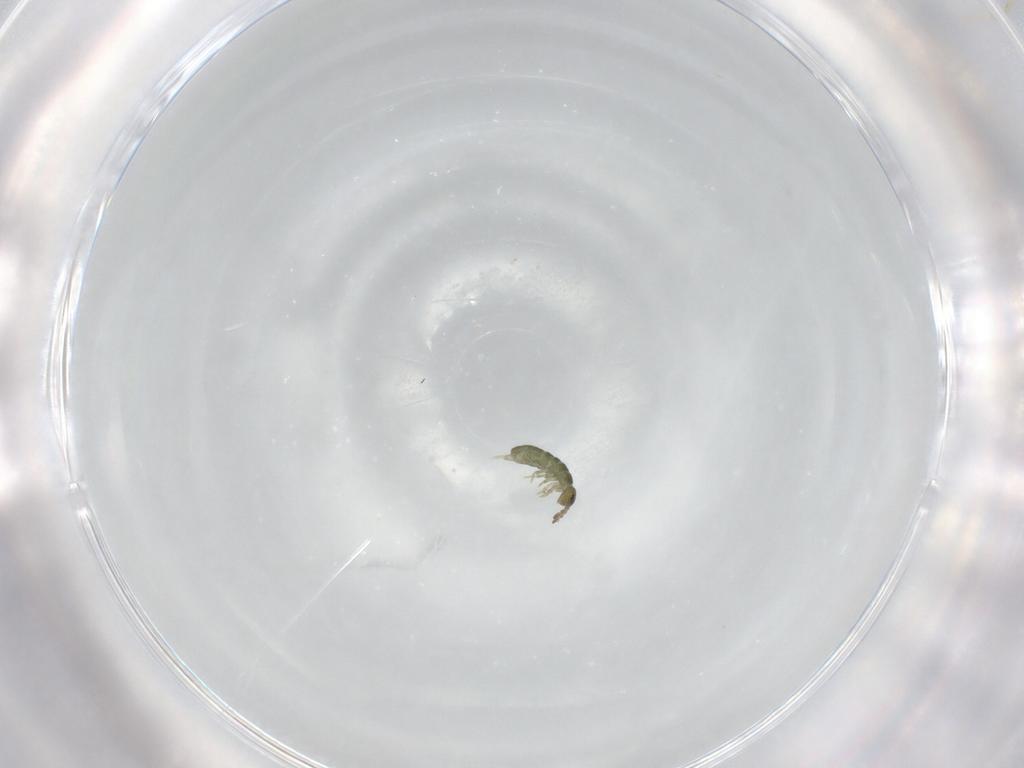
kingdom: Animalia
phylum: Arthropoda
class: Collembola
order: Entomobryomorpha
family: Isotomidae
